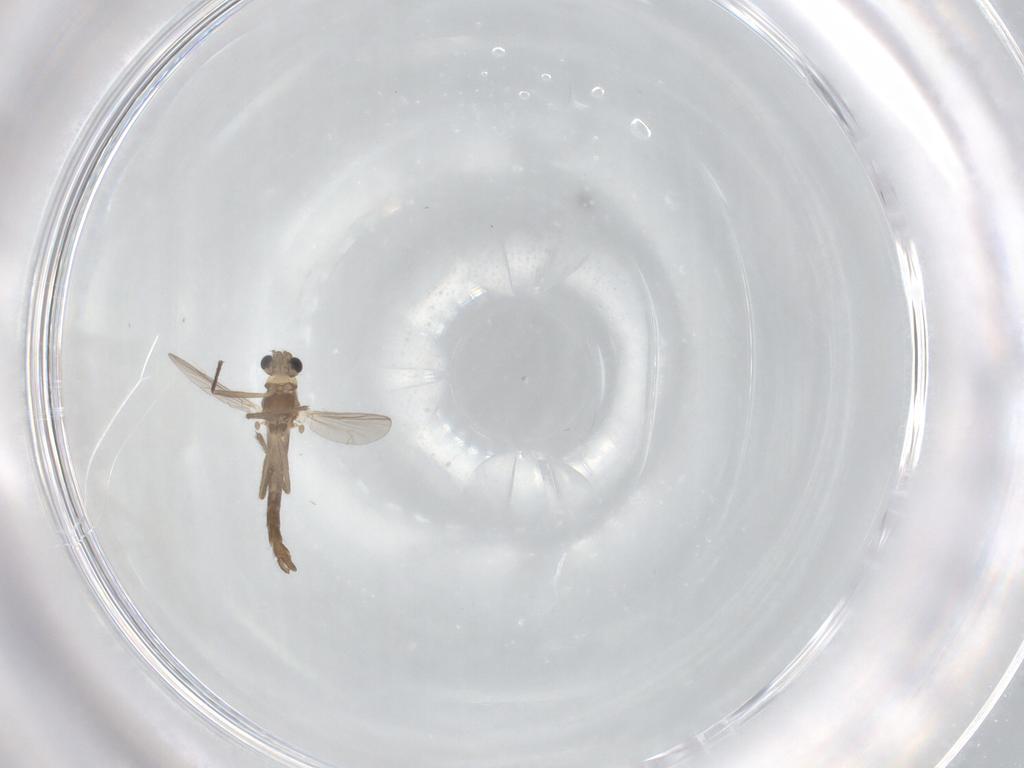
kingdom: Animalia
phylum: Arthropoda
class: Insecta
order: Diptera
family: Chironomidae
